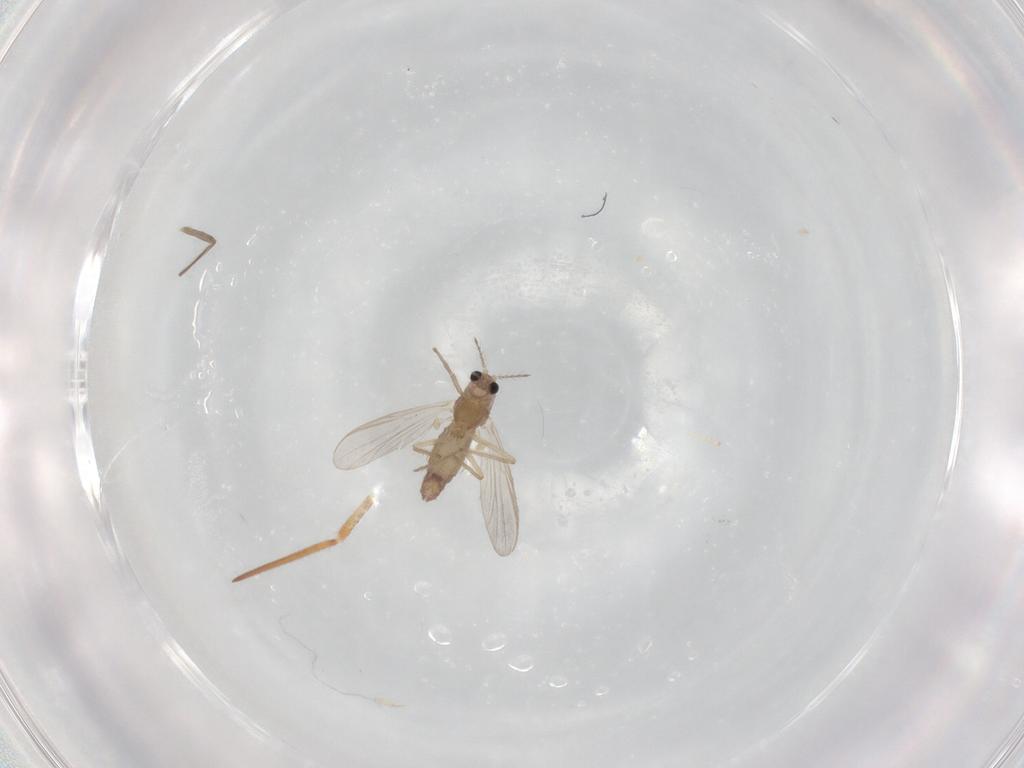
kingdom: Animalia
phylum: Arthropoda
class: Insecta
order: Diptera
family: Chironomidae
